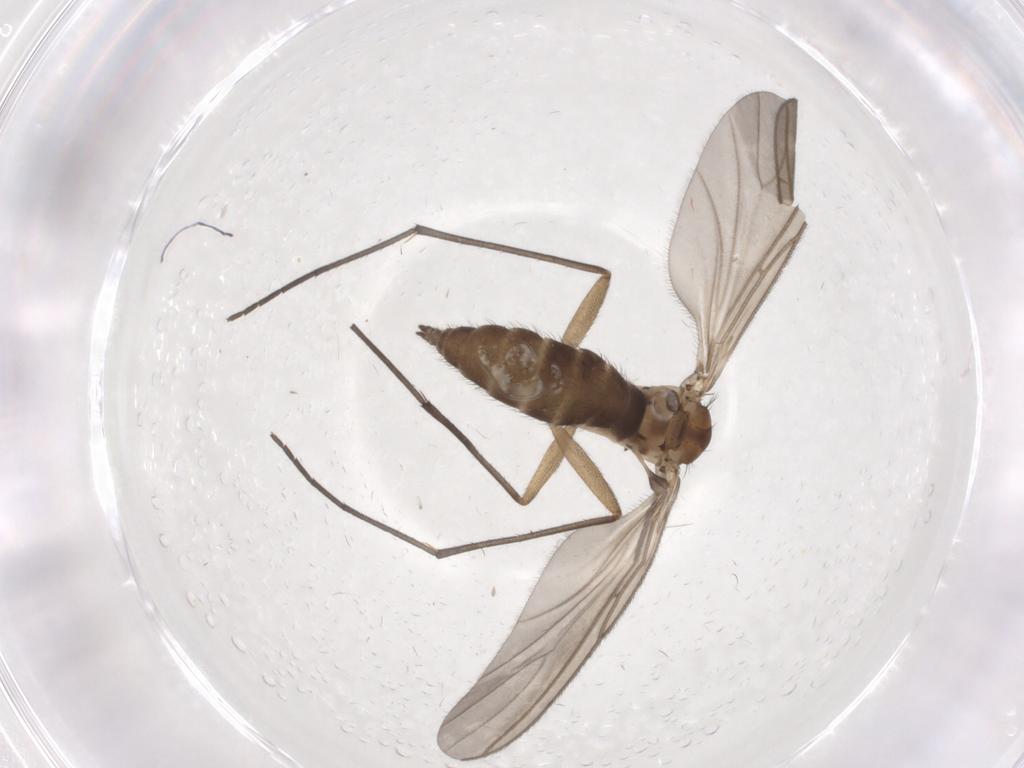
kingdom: Animalia
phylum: Arthropoda
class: Insecta
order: Diptera
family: Sciaridae
